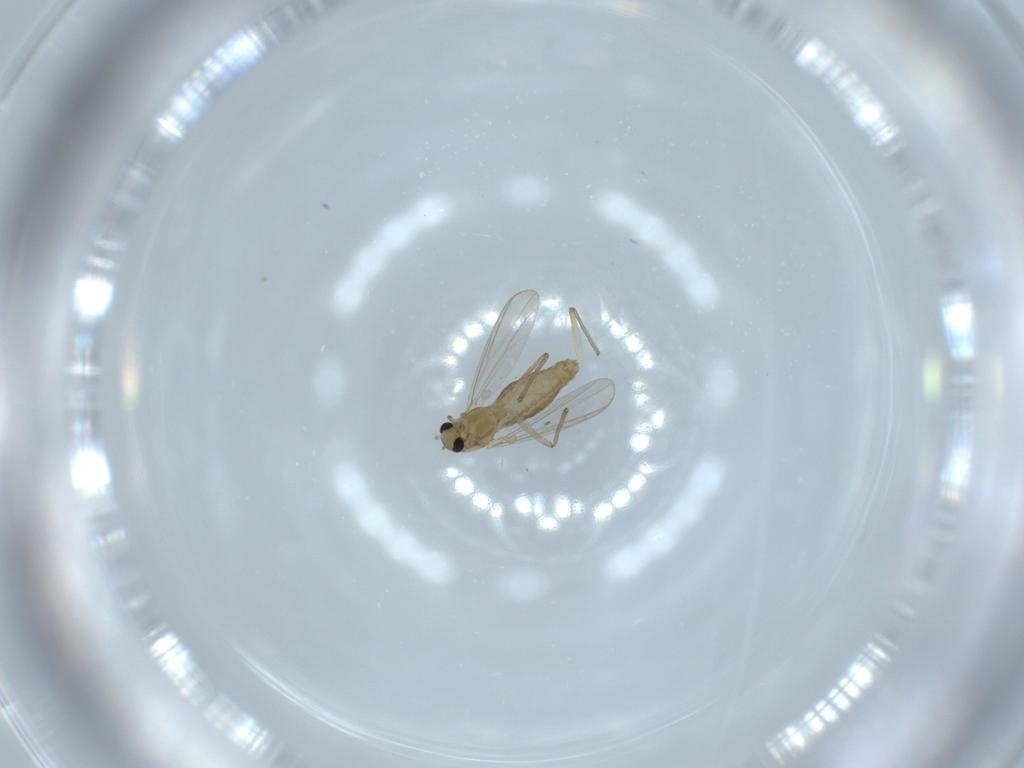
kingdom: Animalia
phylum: Arthropoda
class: Insecta
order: Diptera
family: Chironomidae
